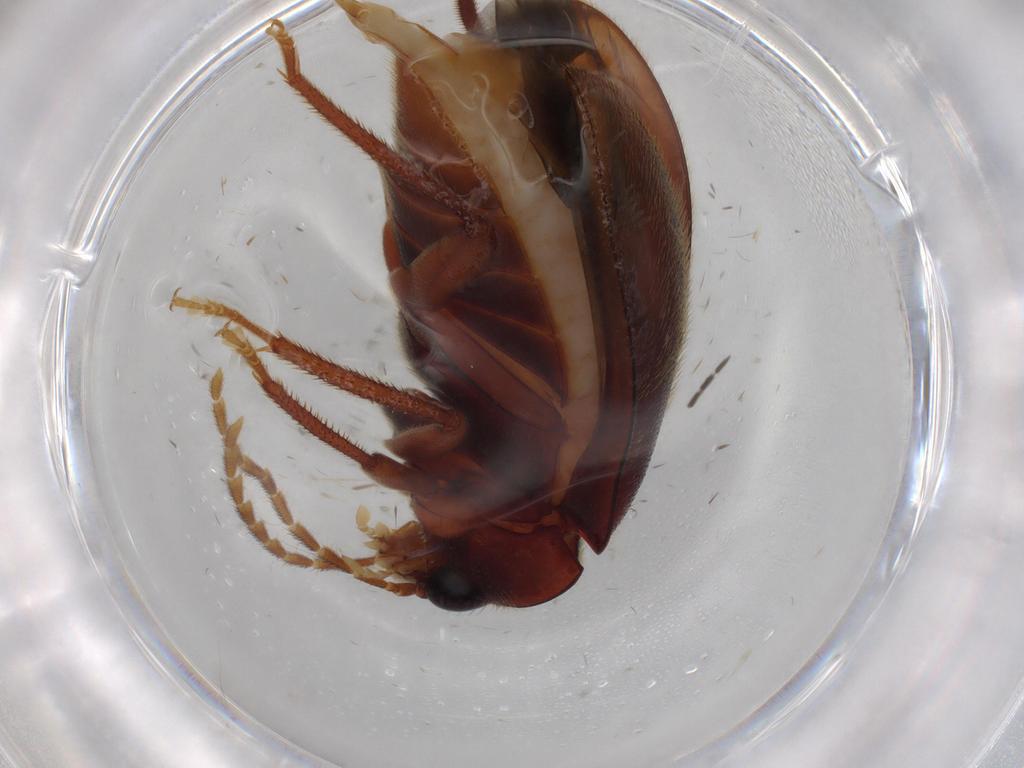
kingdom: Animalia
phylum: Arthropoda
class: Insecta
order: Coleoptera
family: Ptilodactylidae
